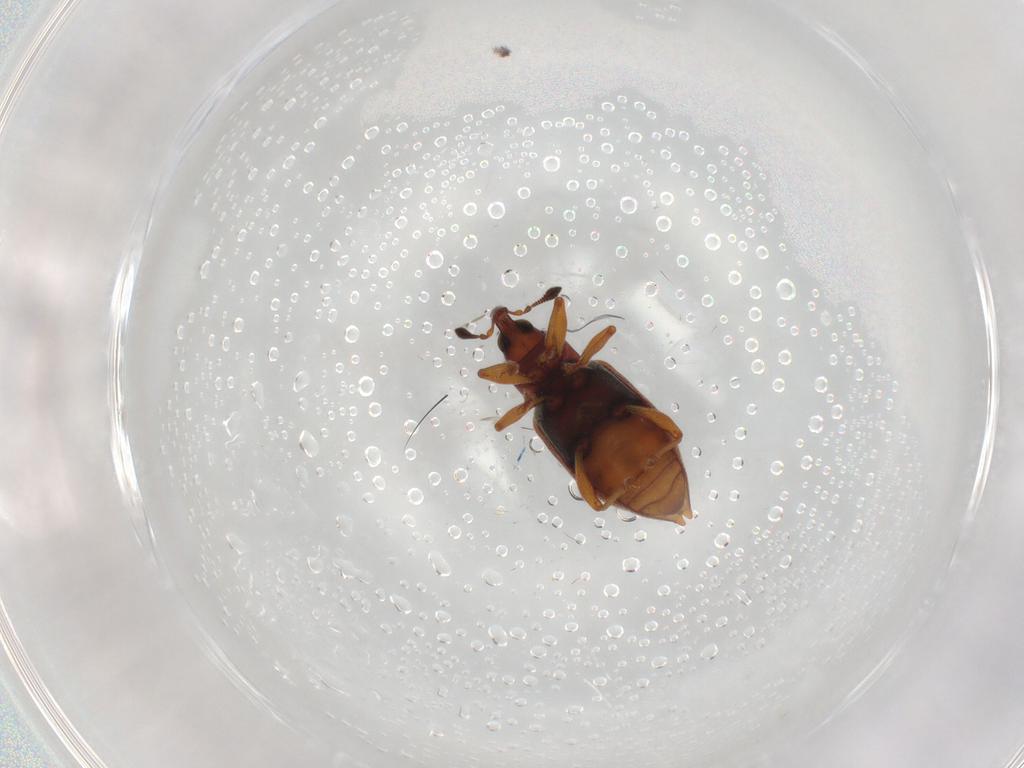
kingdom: Animalia
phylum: Arthropoda
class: Insecta
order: Coleoptera
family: Curculionidae
